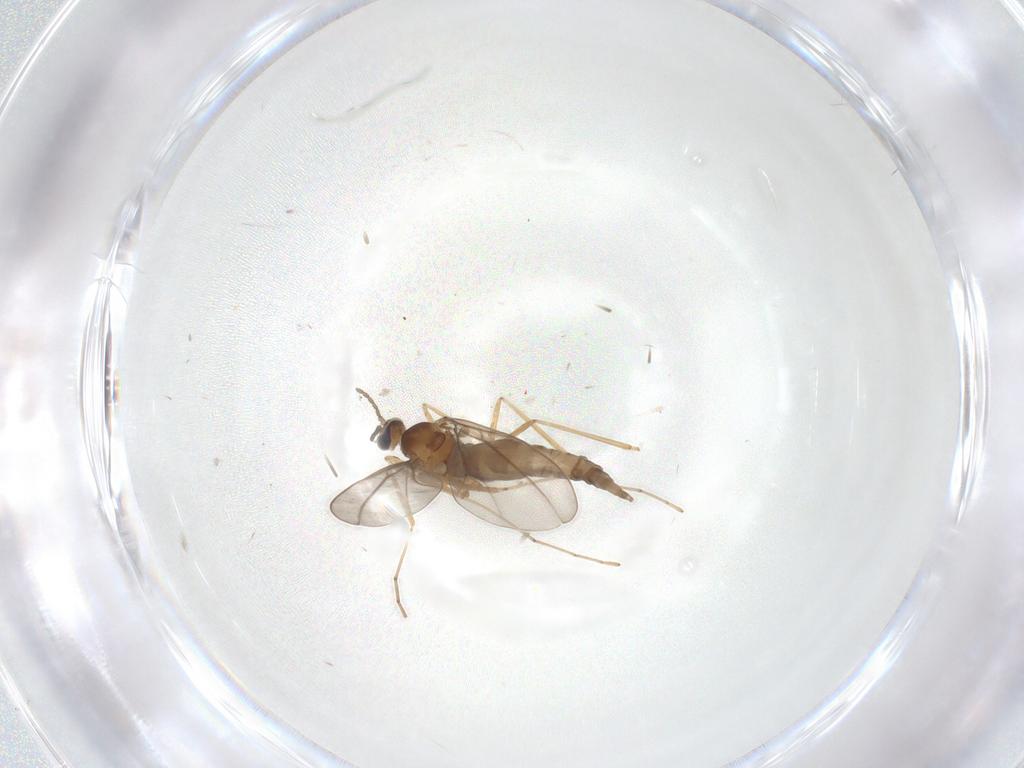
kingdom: Animalia
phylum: Arthropoda
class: Insecta
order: Diptera
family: Cecidomyiidae
